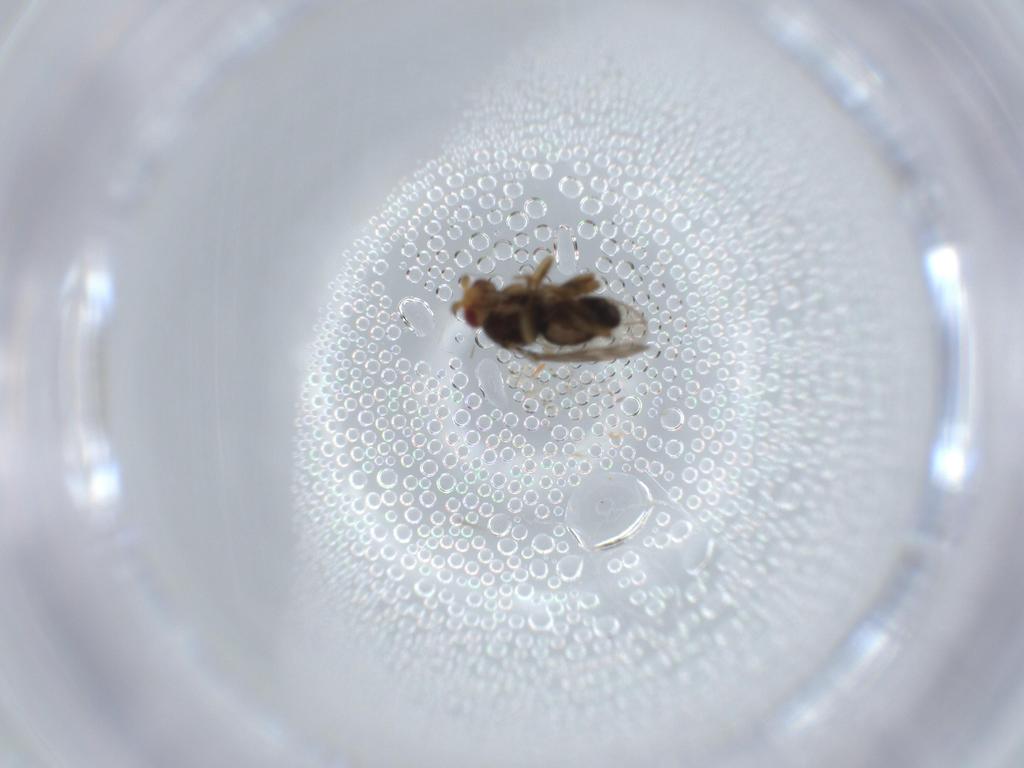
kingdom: Animalia
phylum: Arthropoda
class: Insecta
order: Diptera
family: Sphaeroceridae
